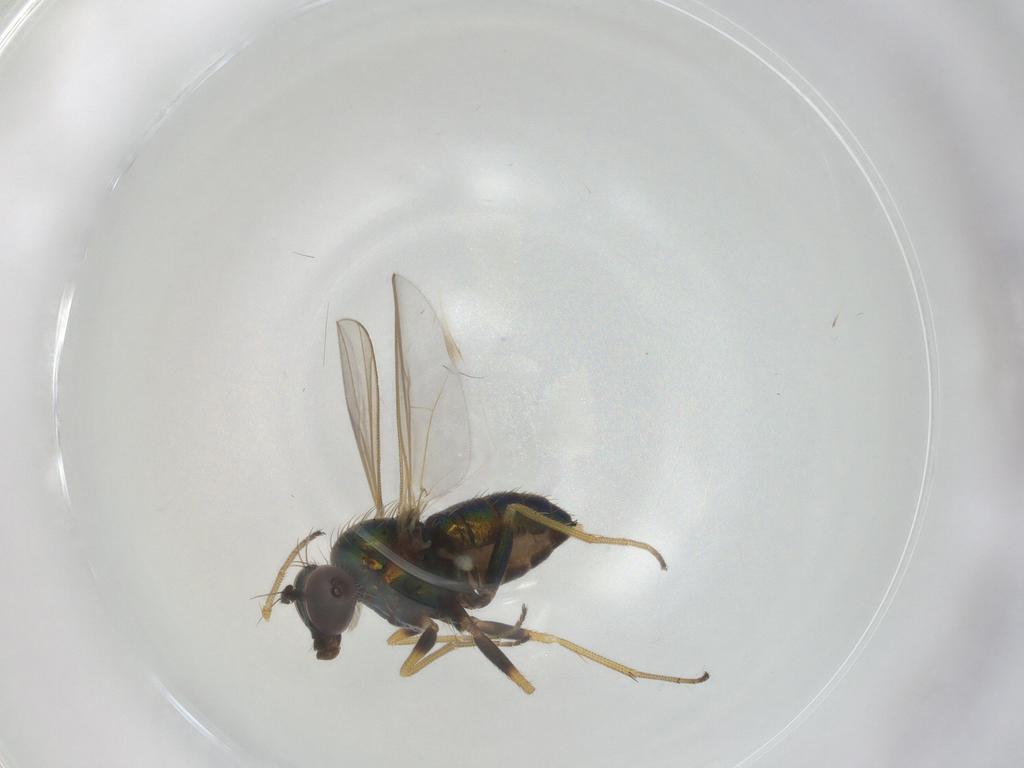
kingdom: Animalia
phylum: Arthropoda
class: Insecta
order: Diptera
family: Dolichopodidae
